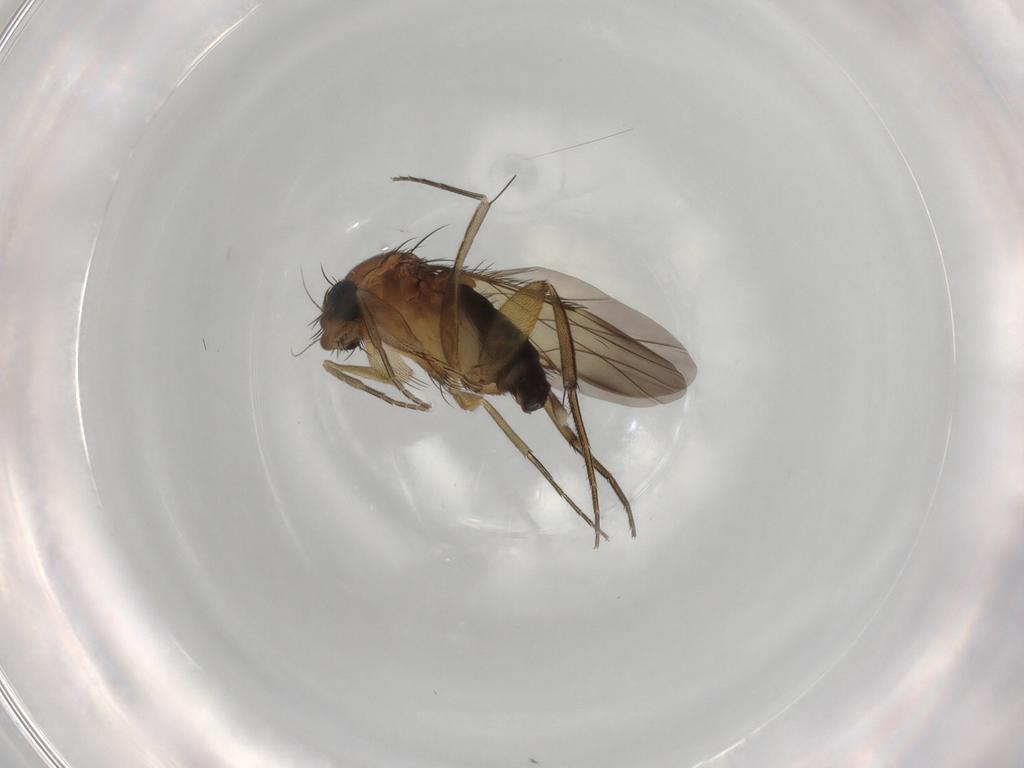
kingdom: Animalia
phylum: Arthropoda
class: Insecta
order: Diptera
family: Phoridae
